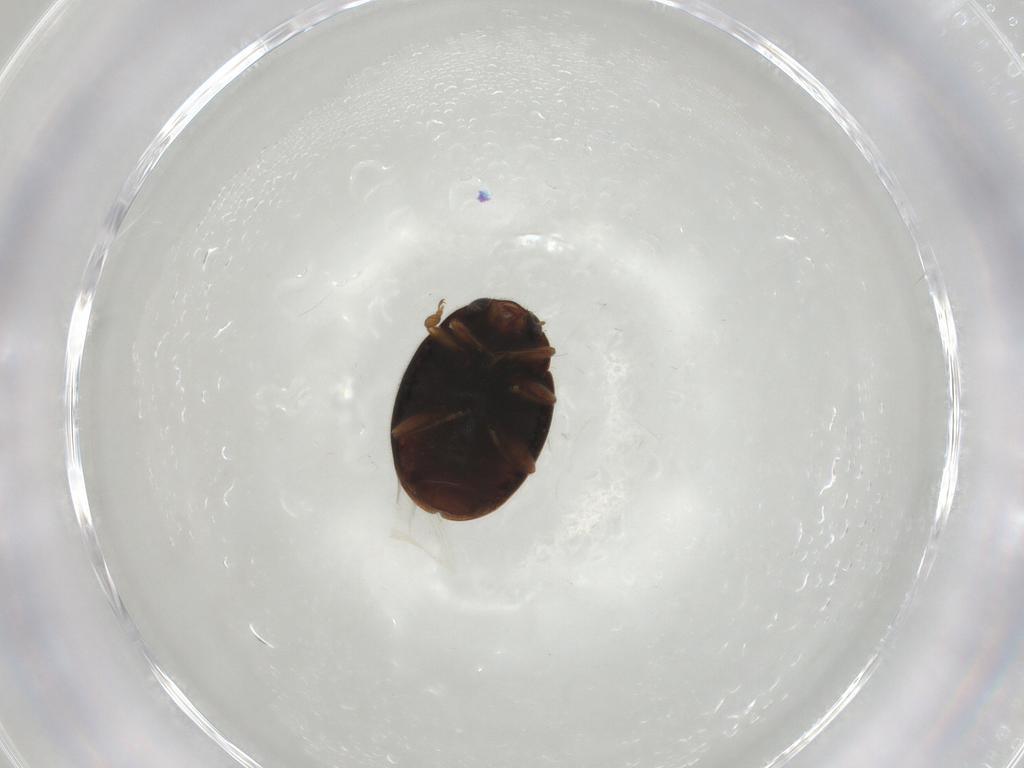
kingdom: Animalia
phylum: Arthropoda
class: Insecta
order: Coleoptera
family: Coccinellidae
